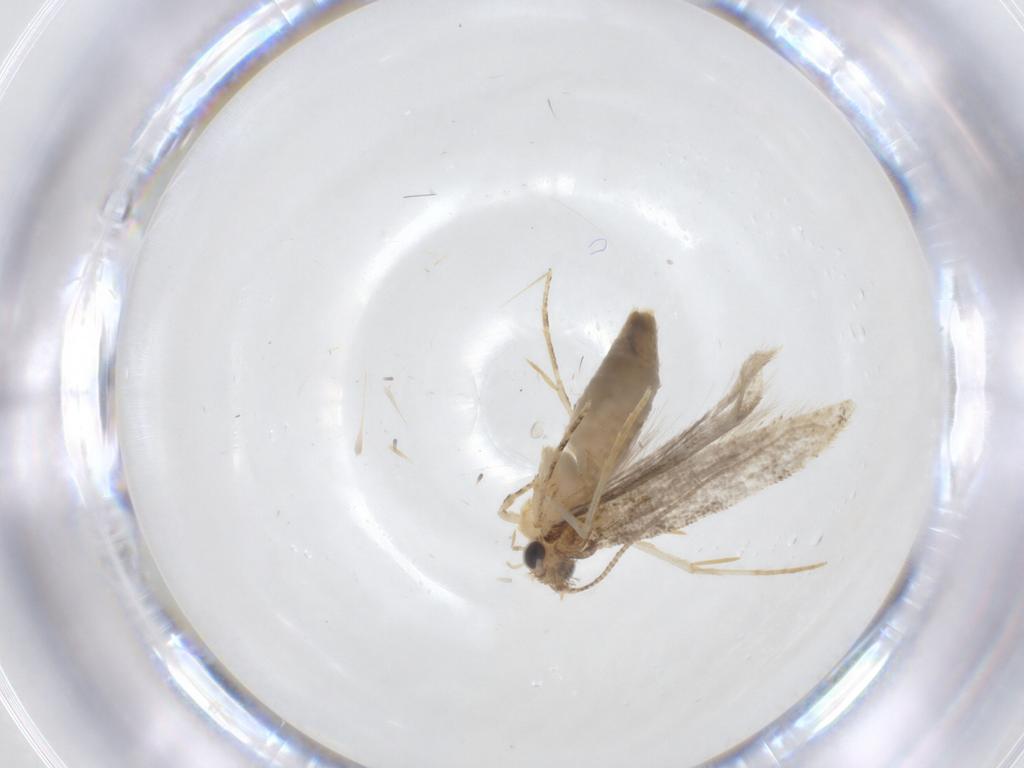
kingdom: Animalia
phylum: Arthropoda
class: Insecta
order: Lepidoptera
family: Tineidae
